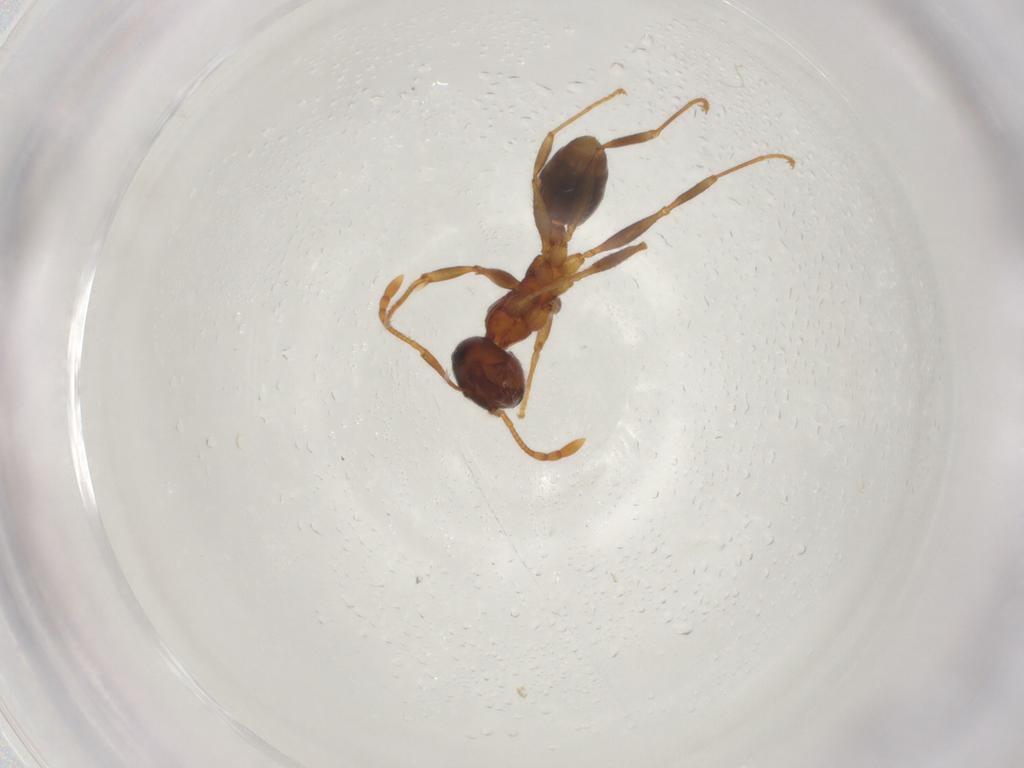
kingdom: Animalia
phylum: Arthropoda
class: Insecta
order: Hymenoptera
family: Formicidae
